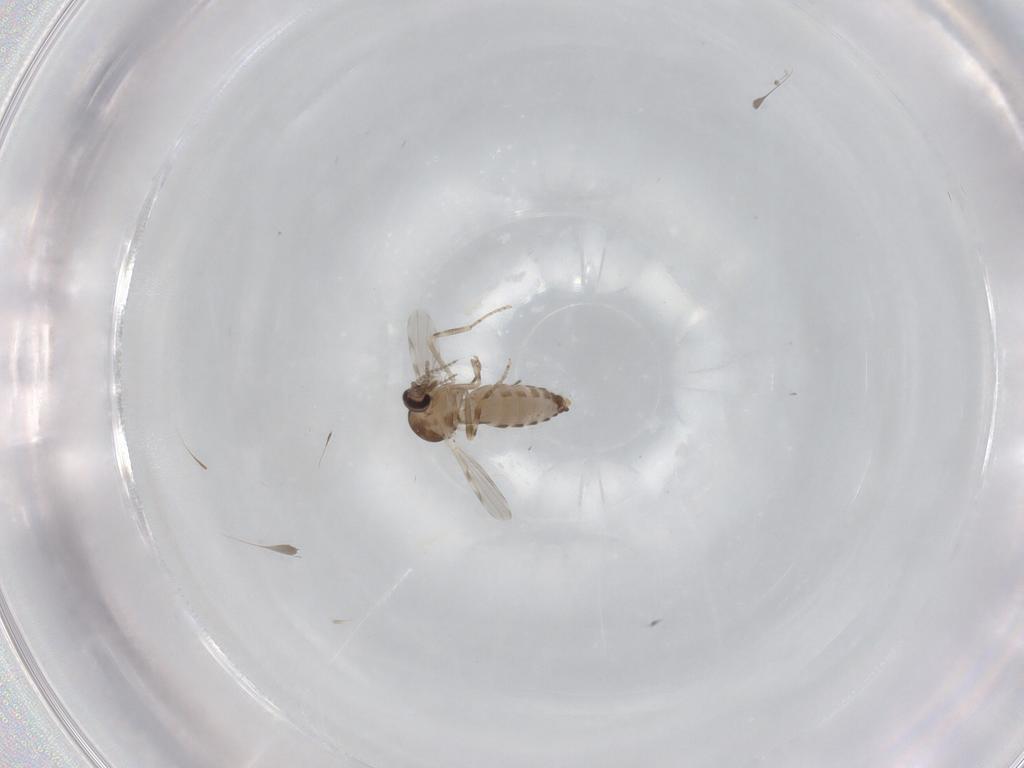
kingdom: Animalia
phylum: Arthropoda
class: Insecta
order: Diptera
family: Ceratopogonidae
